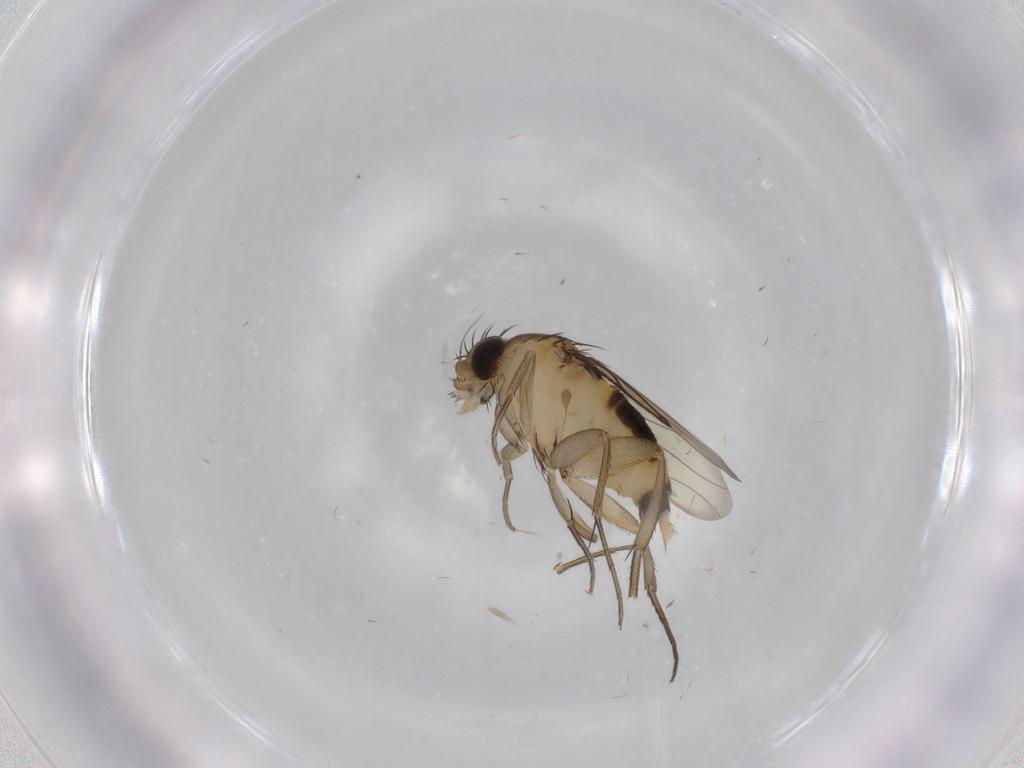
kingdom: Animalia
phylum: Arthropoda
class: Insecta
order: Diptera
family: Phoridae
